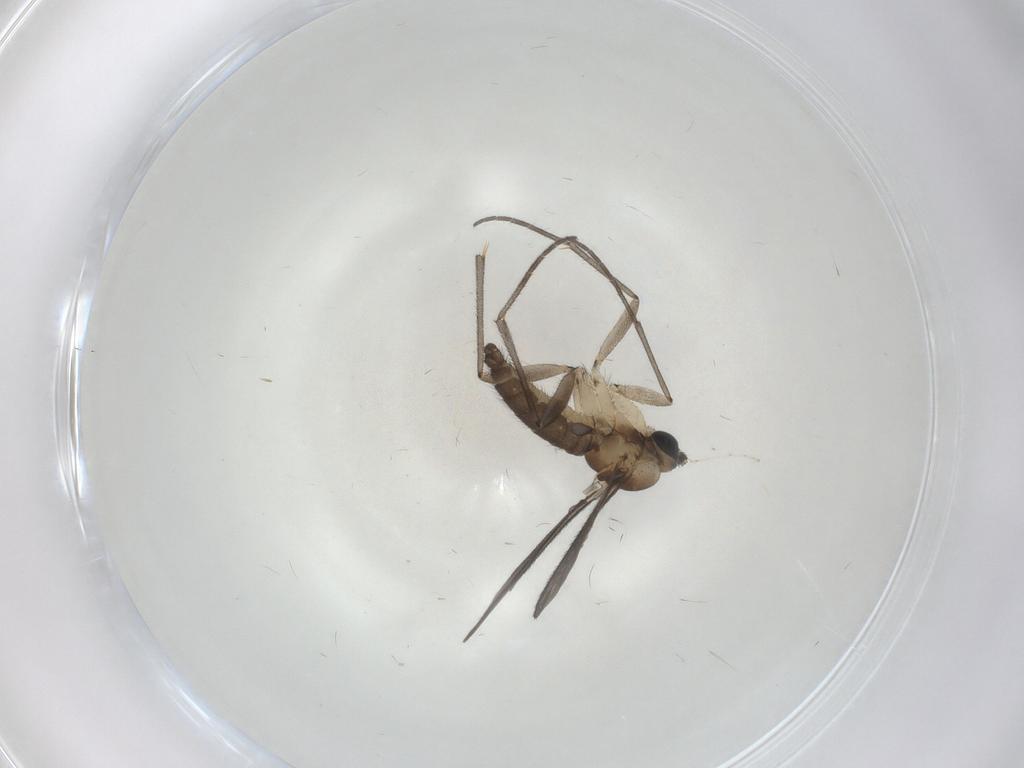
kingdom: Animalia
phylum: Arthropoda
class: Insecta
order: Diptera
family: Sciaridae
